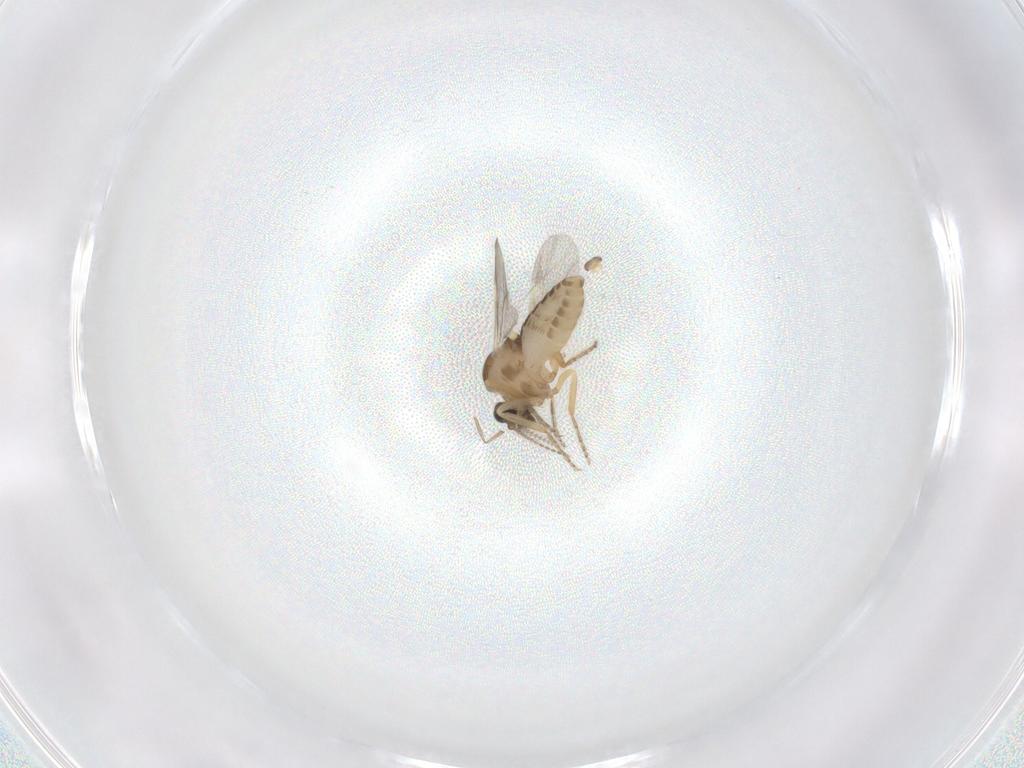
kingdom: Animalia
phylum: Arthropoda
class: Insecta
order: Diptera
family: Ceratopogonidae
